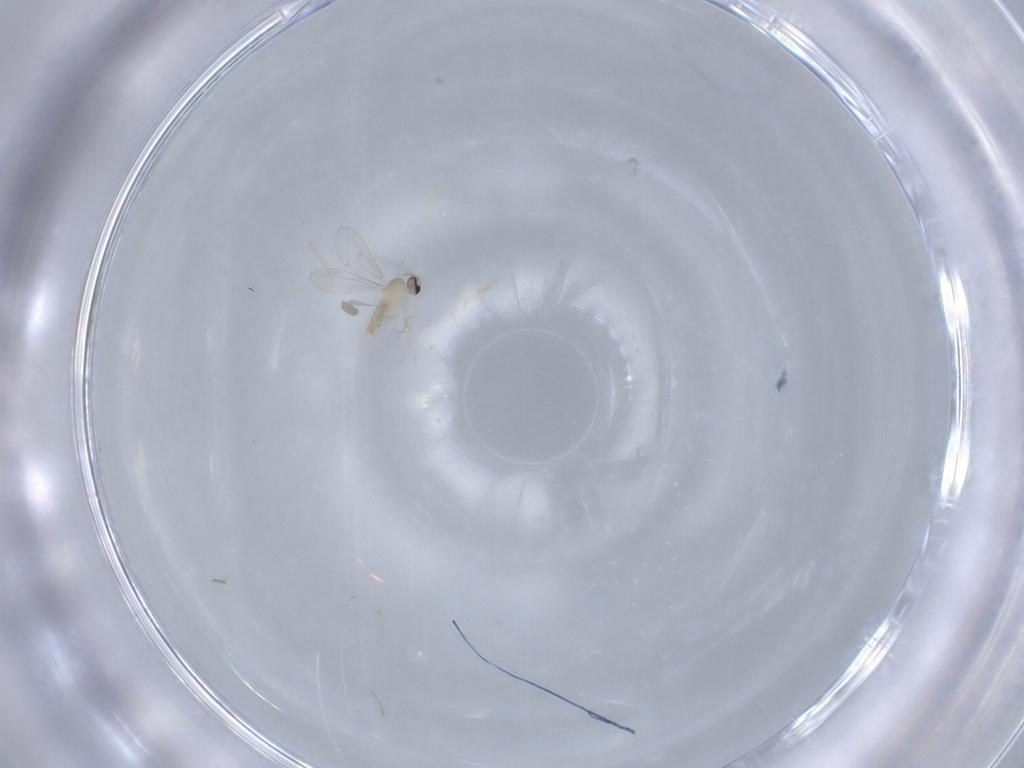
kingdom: Animalia
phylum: Arthropoda
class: Insecta
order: Diptera
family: Cecidomyiidae
